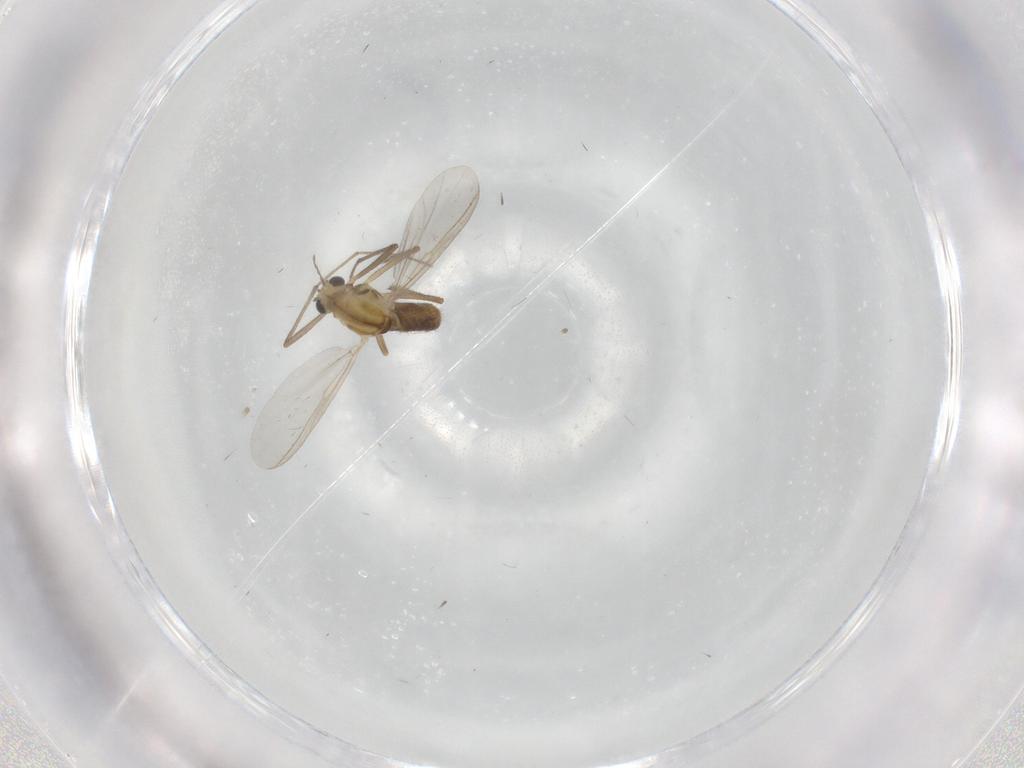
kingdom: Animalia
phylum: Arthropoda
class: Insecta
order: Diptera
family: Chironomidae
